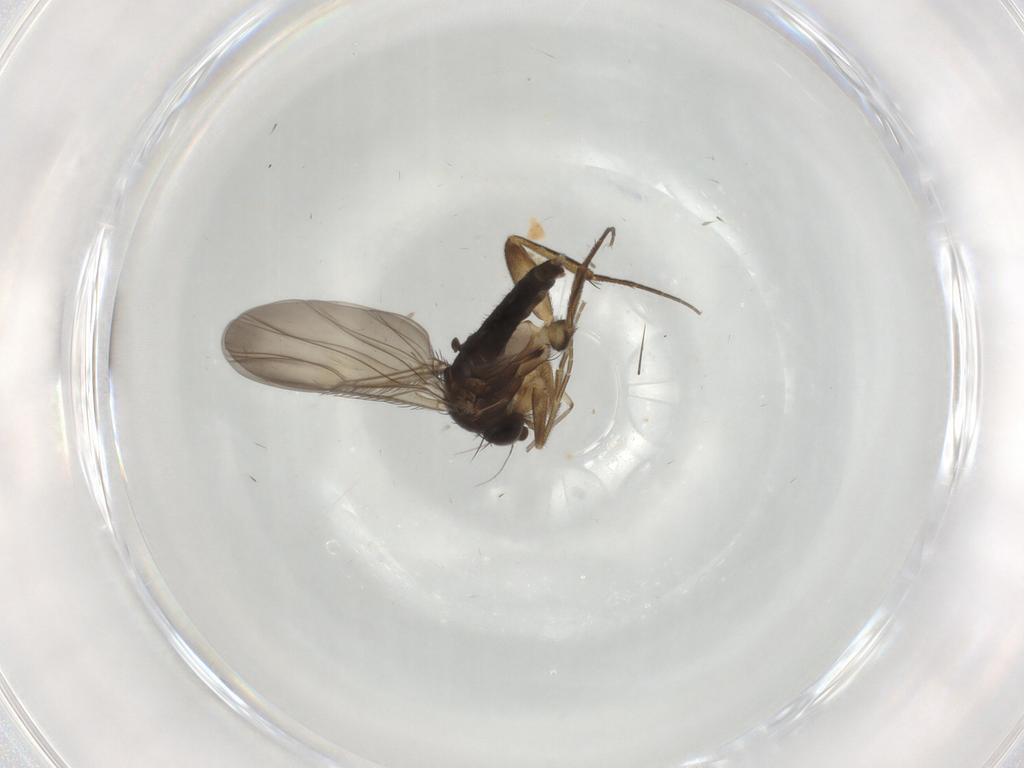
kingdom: Animalia
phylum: Arthropoda
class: Insecta
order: Diptera
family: Phoridae
